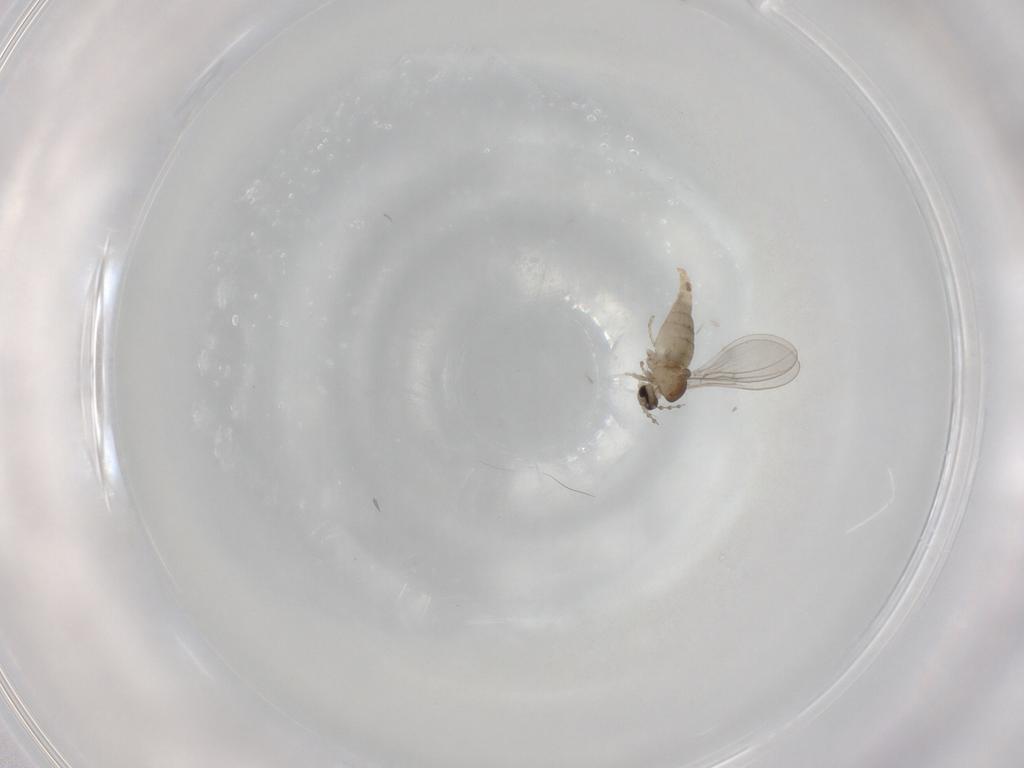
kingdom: Animalia
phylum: Arthropoda
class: Insecta
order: Diptera
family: Cecidomyiidae
